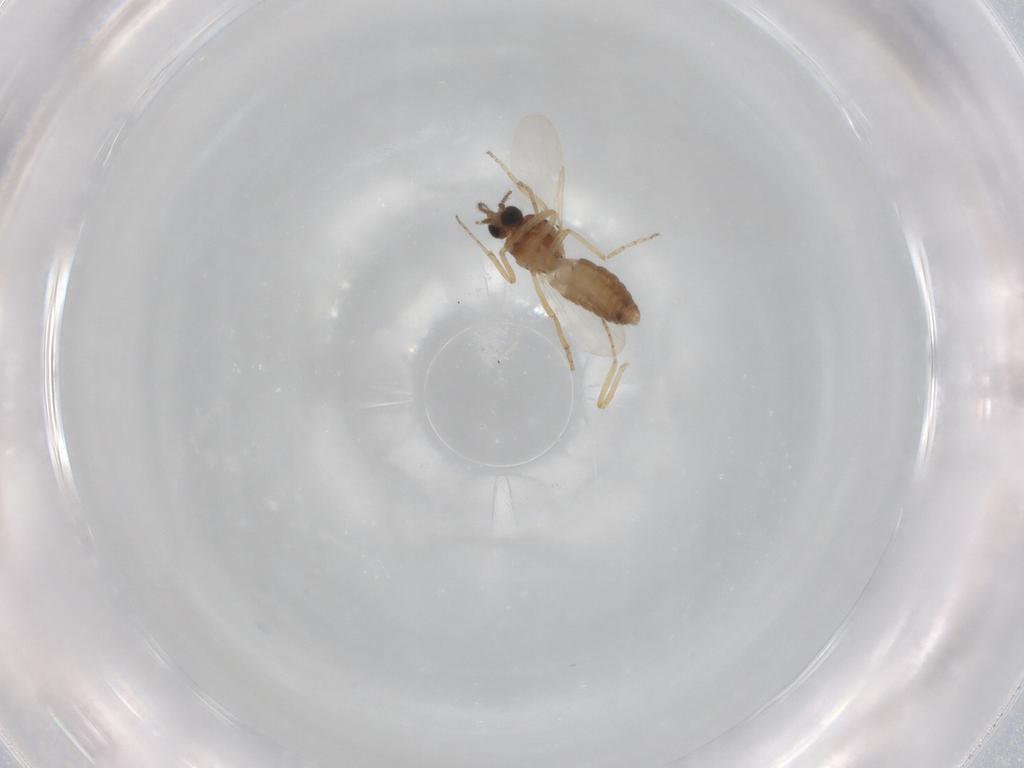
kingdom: Animalia
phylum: Arthropoda
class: Insecta
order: Diptera
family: Ceratopogonidae
